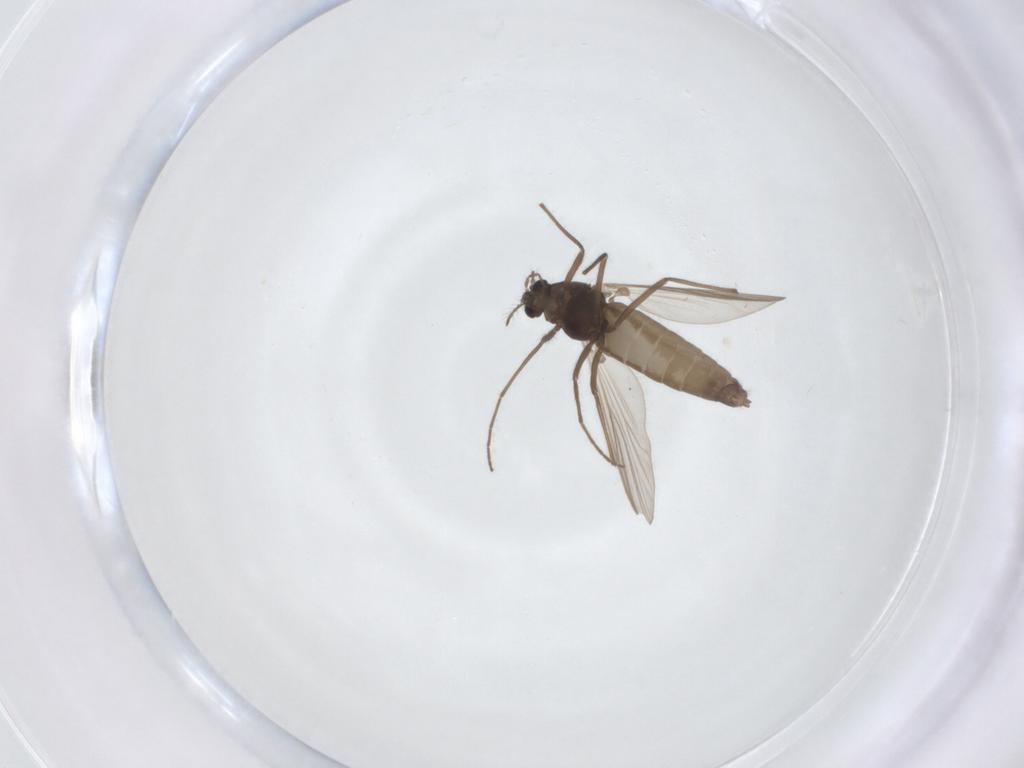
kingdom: Animalia
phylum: Arthropoda
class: Insecta
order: Diptera
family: Chironomidae
